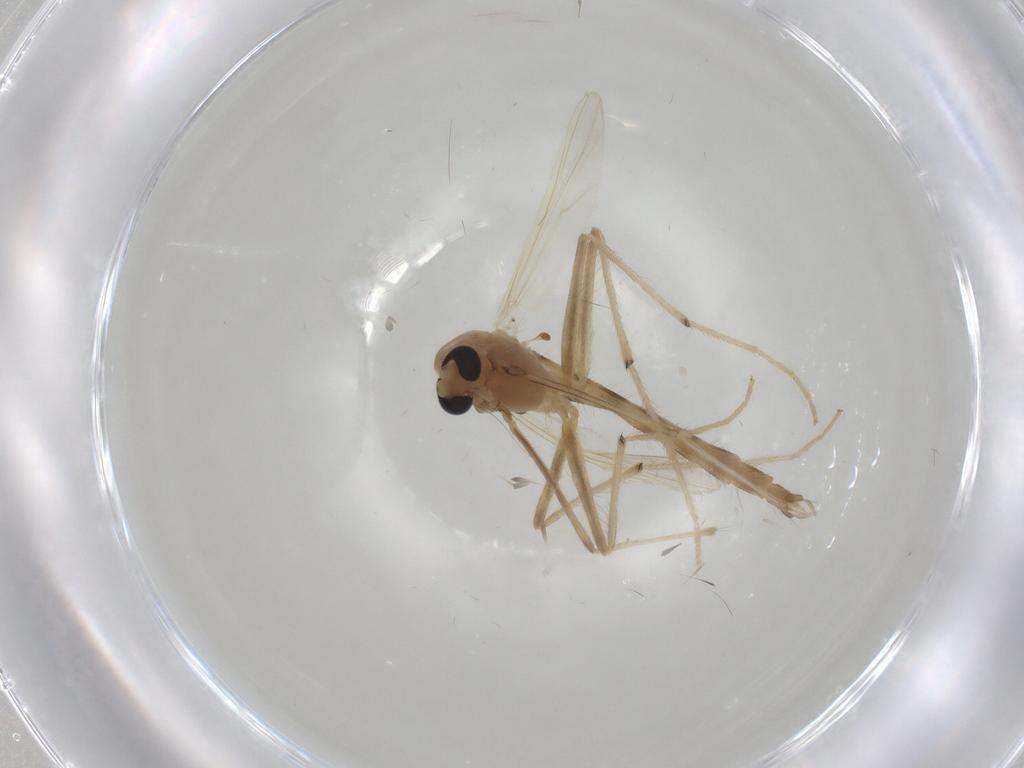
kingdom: Animalia
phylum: Arthropoda
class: Insecta
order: Diptera
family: Chironomidae
